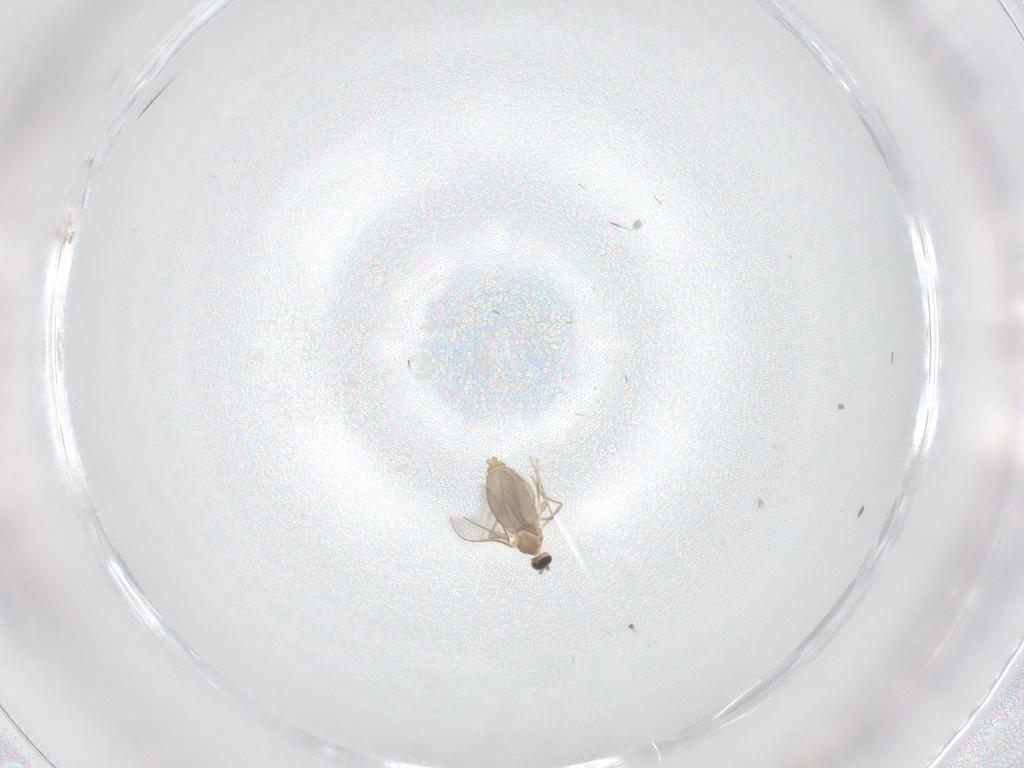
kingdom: Animalia
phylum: Arthropoda
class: Insecta
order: Diptera
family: Cecidomyiidae
